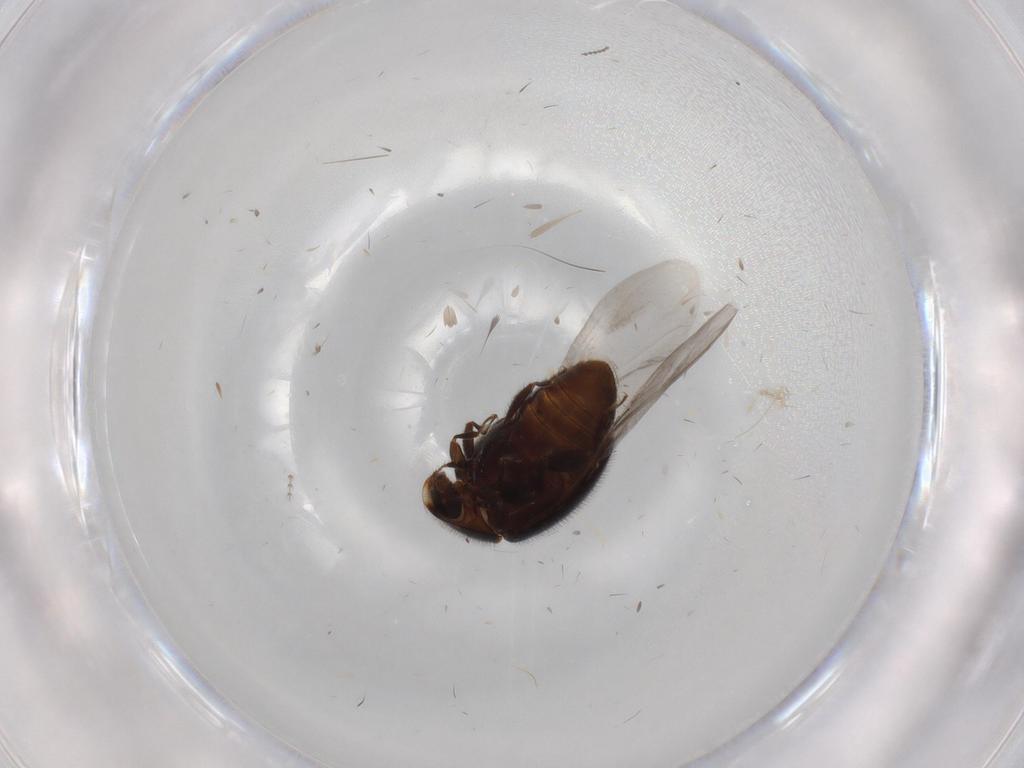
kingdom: Animalia
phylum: Arthropoda
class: Insecta
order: Coleoptera
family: Corylophidae
